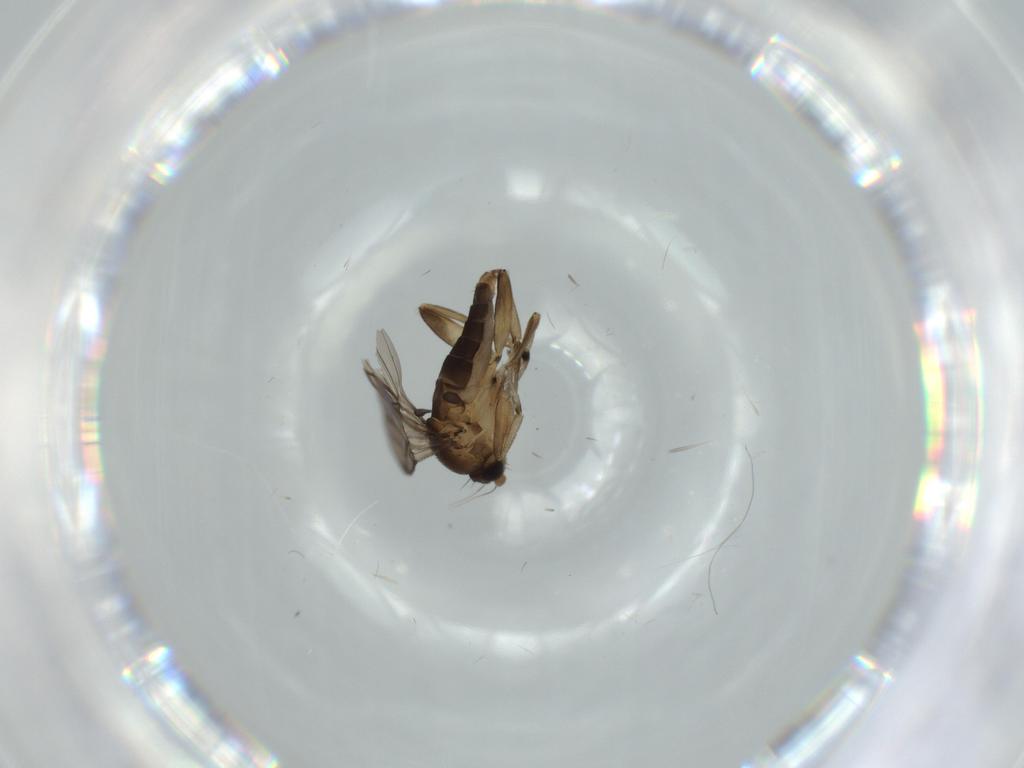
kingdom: Animalia
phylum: Arthropoda
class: Insecta
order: Diptera
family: Phoridae
